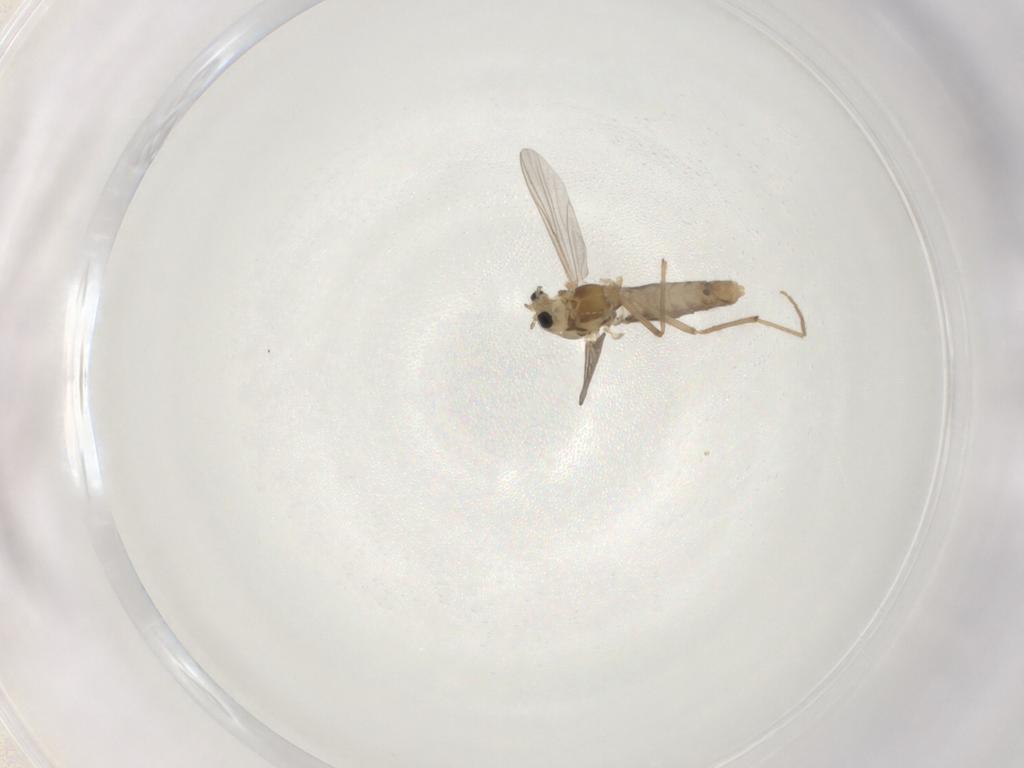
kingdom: Animalia
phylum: Arthropoda
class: Insecta
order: Diptera
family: Chironomidae
